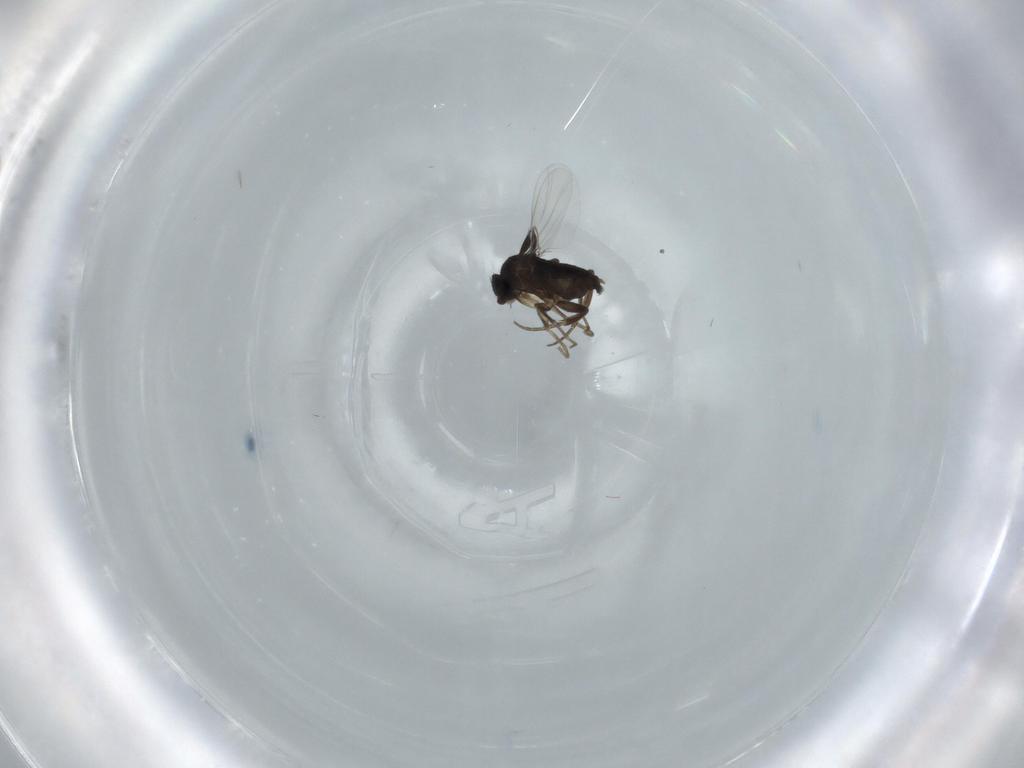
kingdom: Animalia
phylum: Arthropoda
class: Insecta
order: Diptera
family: Phoridae
